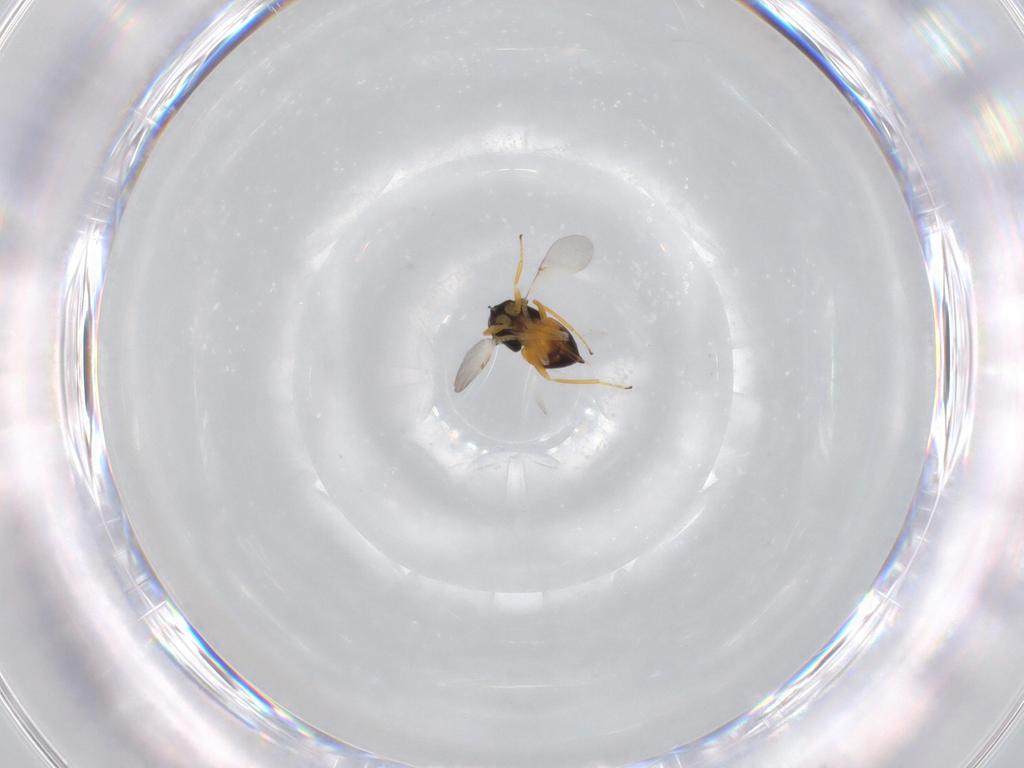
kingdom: Animalia
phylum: Arthropoda
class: Insecta
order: Hymenoptera
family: Encyrtidae
